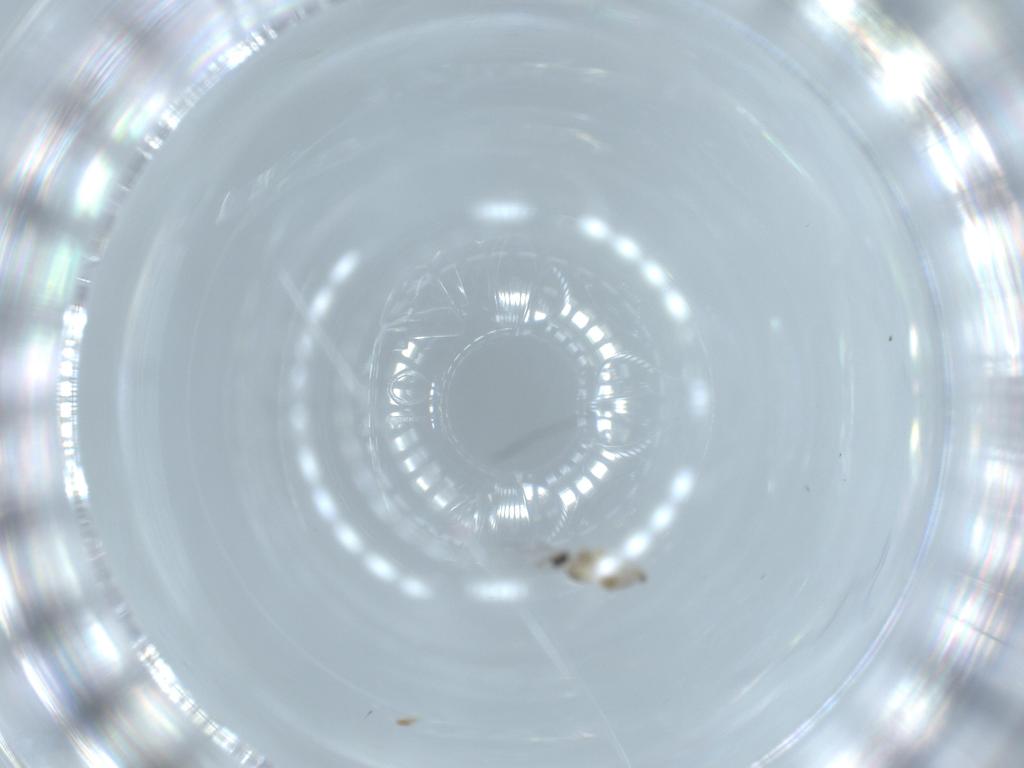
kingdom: Animalia
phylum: Arthropoda
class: Insecta
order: Diptera
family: Cecidomyiidae
